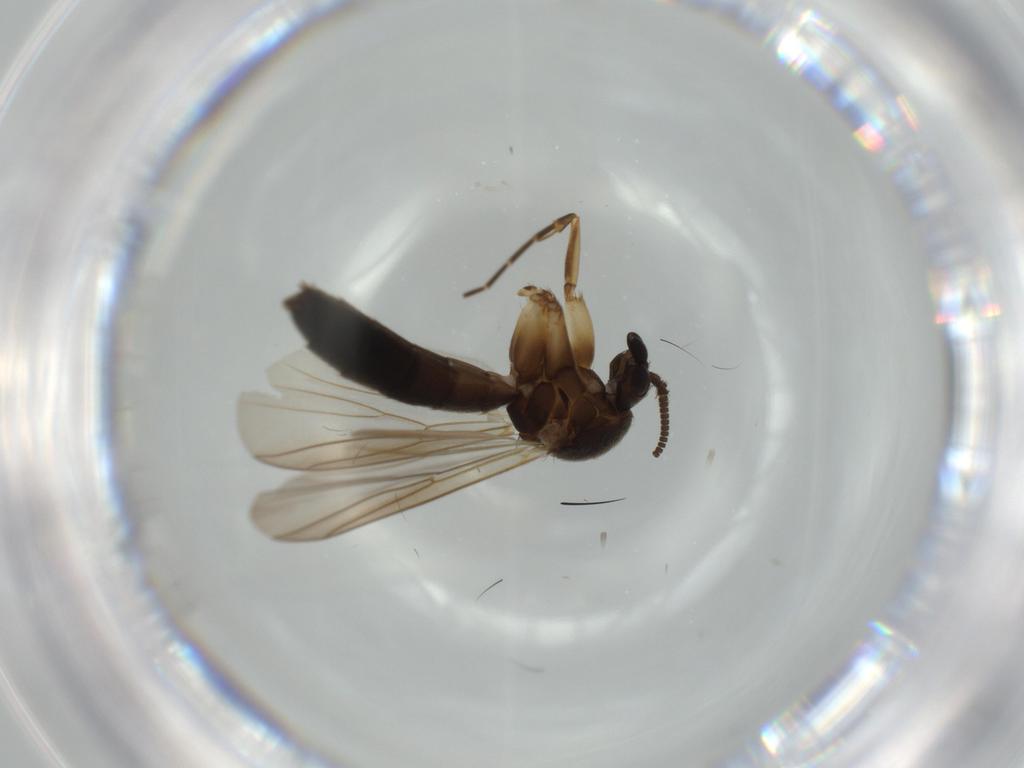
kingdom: Animalia
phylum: Arthropoda
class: Insecta
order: Diptera
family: Mycetophilidae
